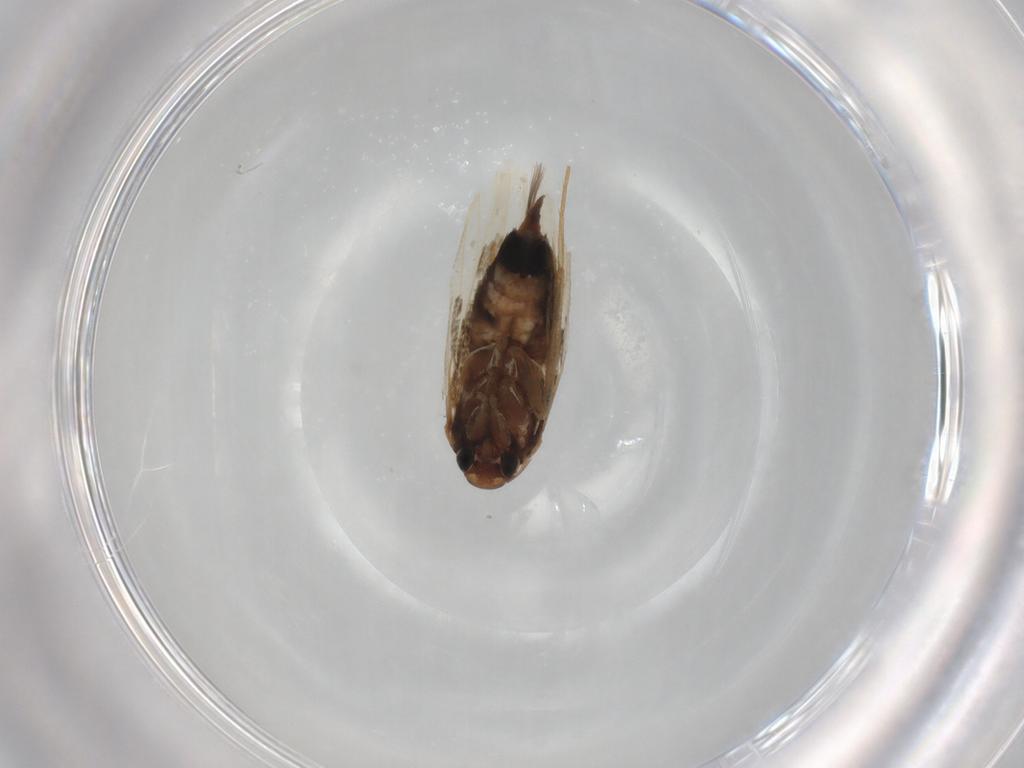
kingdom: Animalia
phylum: Arthropoda
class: Insecta
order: Lepidoptera
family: Cosmopterigidae
